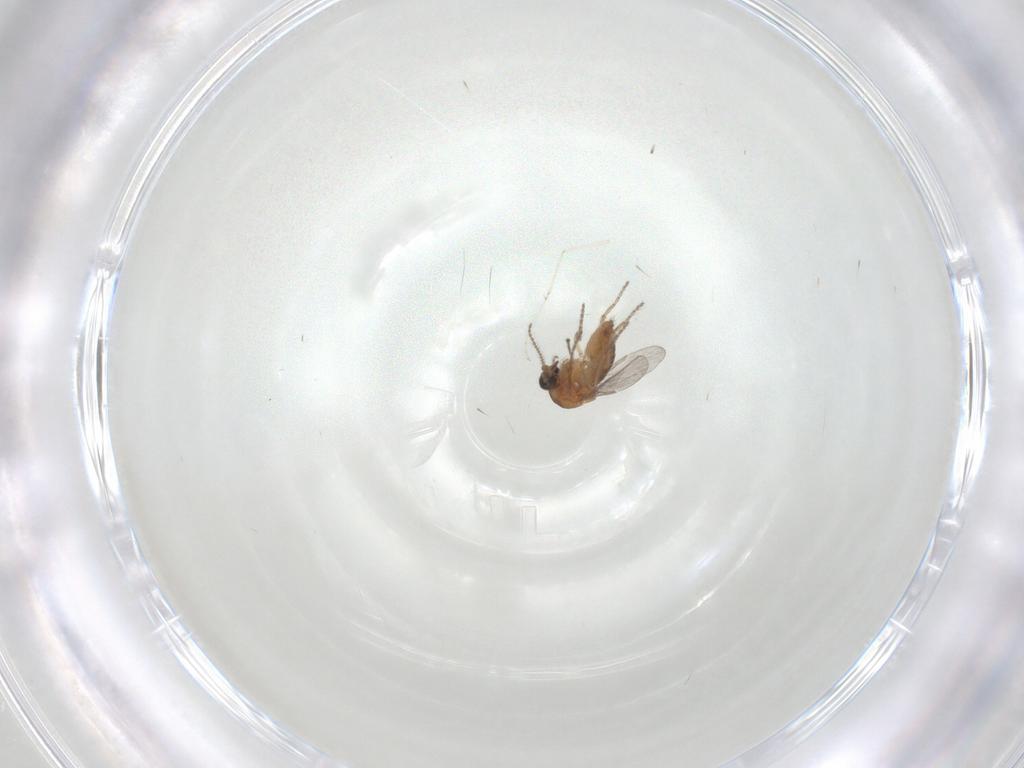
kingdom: Animalia
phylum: Arthropoda
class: Insecta
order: Diptera
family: Ceratopogonidae
